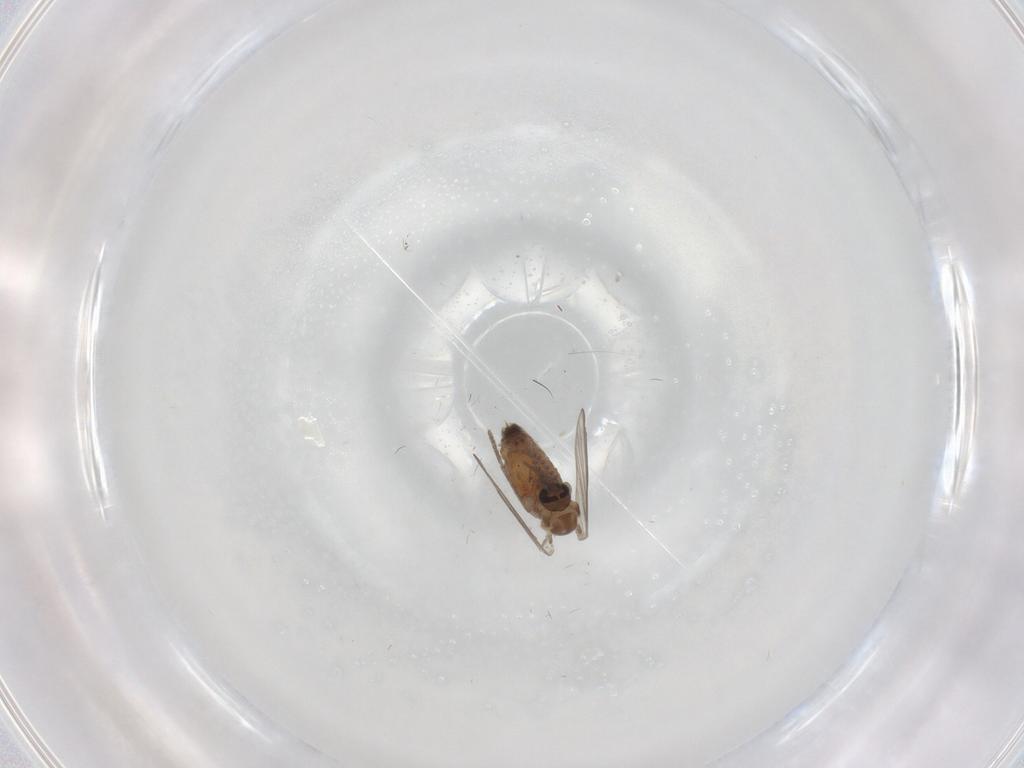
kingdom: Animalia
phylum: Arthropoda
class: Insecta
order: Diptera
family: Psychodidae
